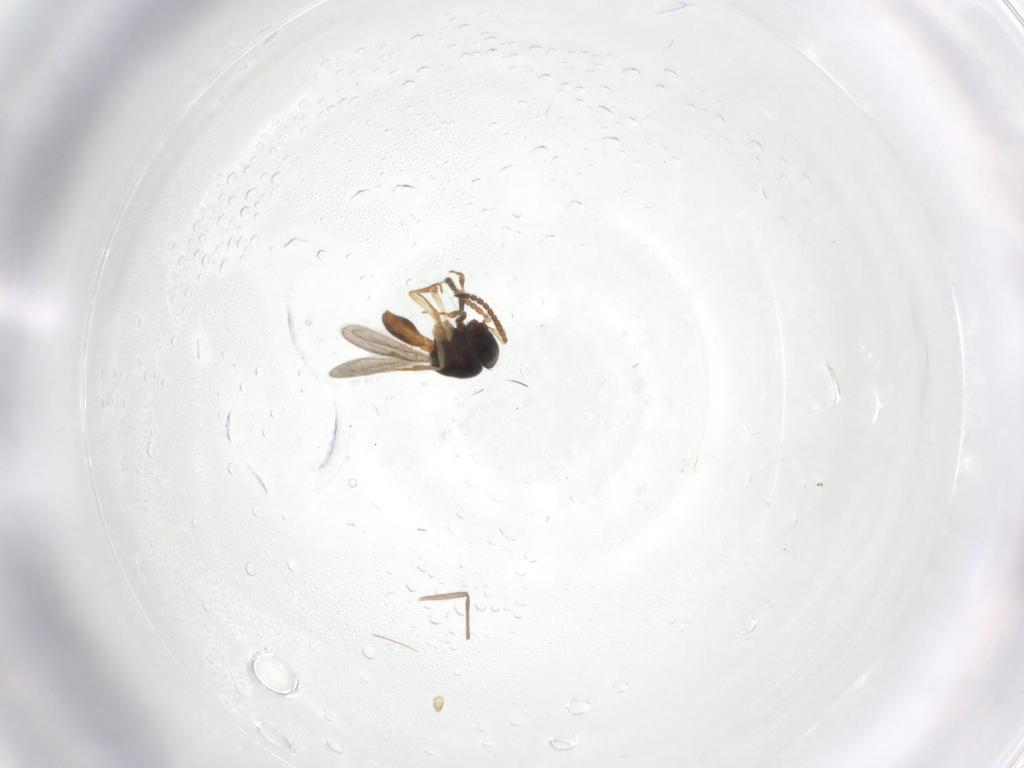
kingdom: Animalia
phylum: Arthropoda
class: Insecta
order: Hymenoptera
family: Scelionidae
